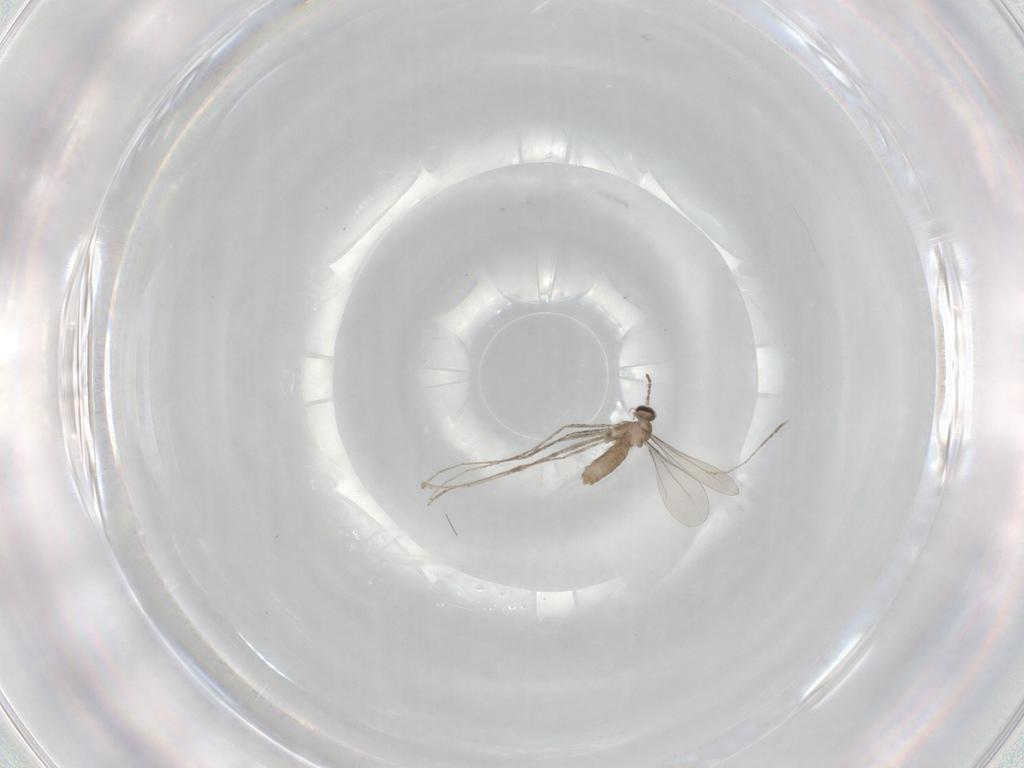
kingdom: Animalia
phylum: Arthropoda
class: Insecta
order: Diptera
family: Cecidomyiidae
